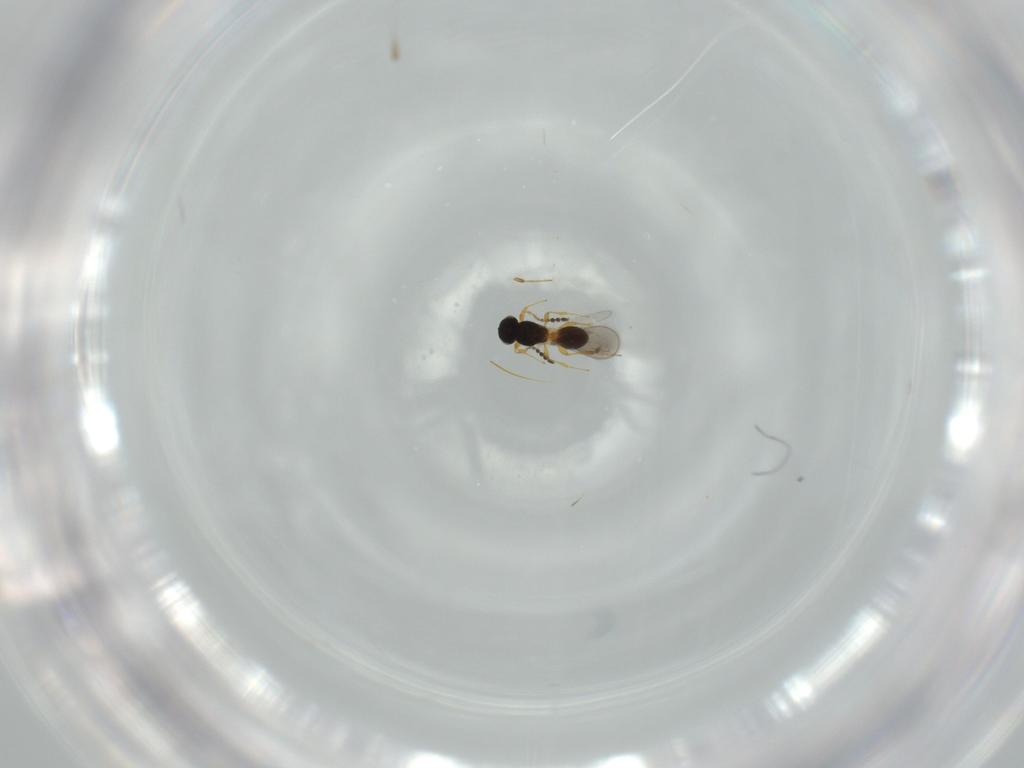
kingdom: Animalia
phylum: Arthropoda
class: Insecta
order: Hymenoptera
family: Platygastridae
